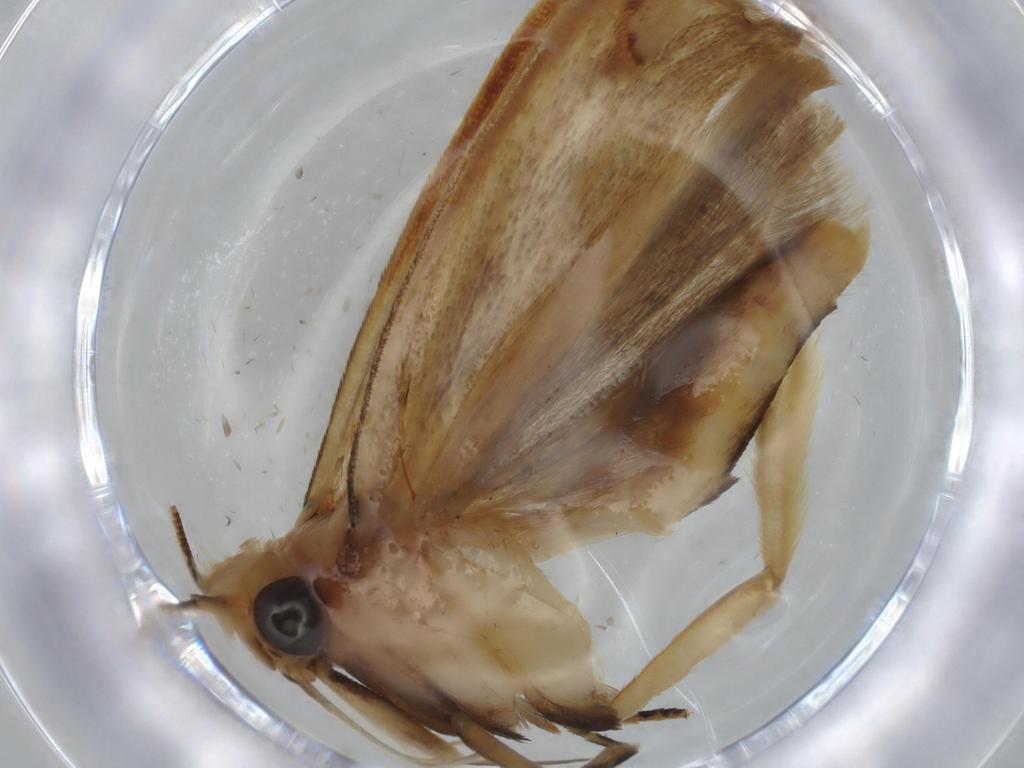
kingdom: Animalia
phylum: Arthropoda
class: Insecta
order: Lepidoptera
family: Gelechiidae
